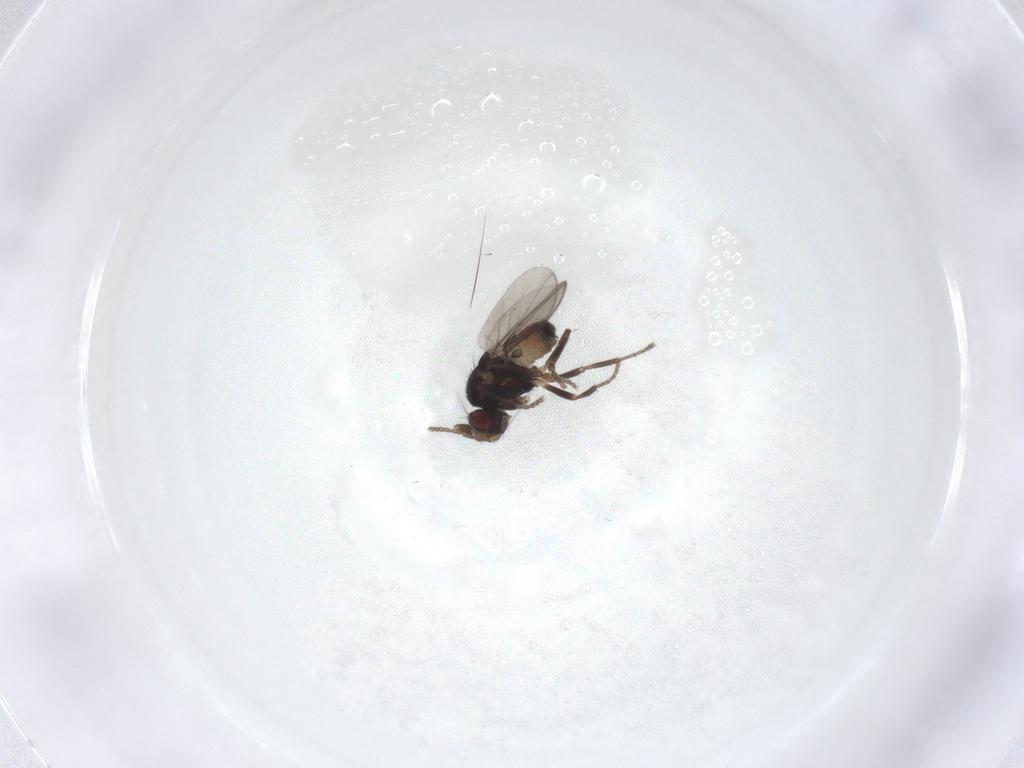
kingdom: Animalia
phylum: Arthropoda
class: Insecta
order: Diptera
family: Sphaeroceridae
